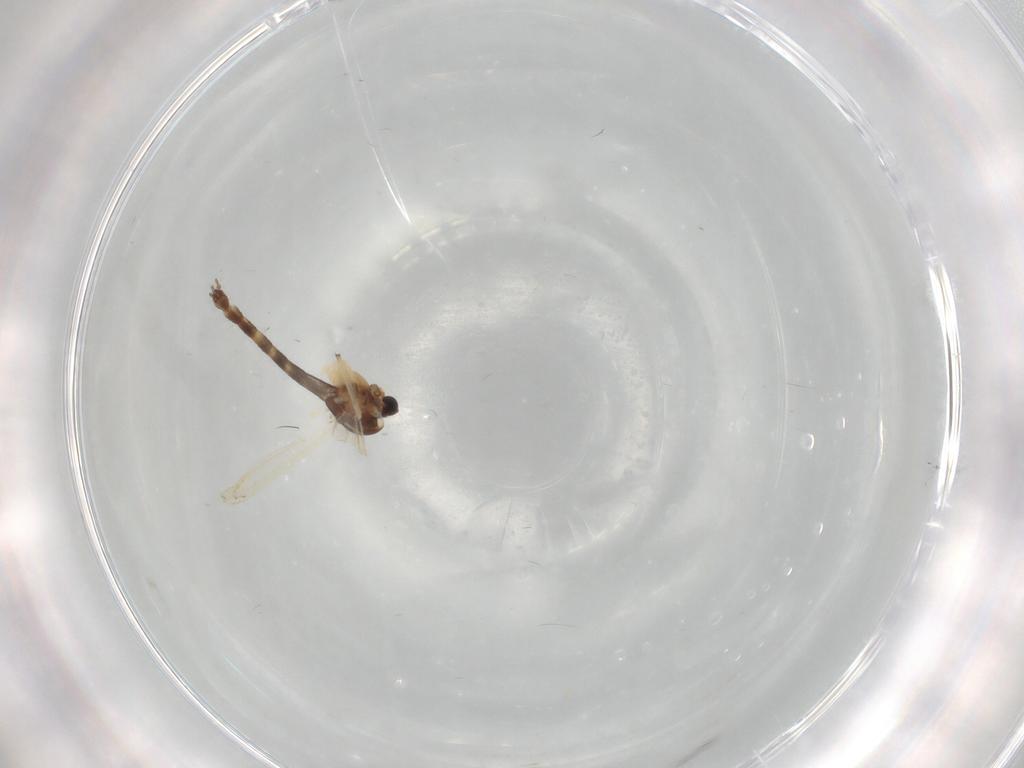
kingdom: Animalia
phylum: Arthropoda
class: Insecta
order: Diptera
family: Chironomidae
